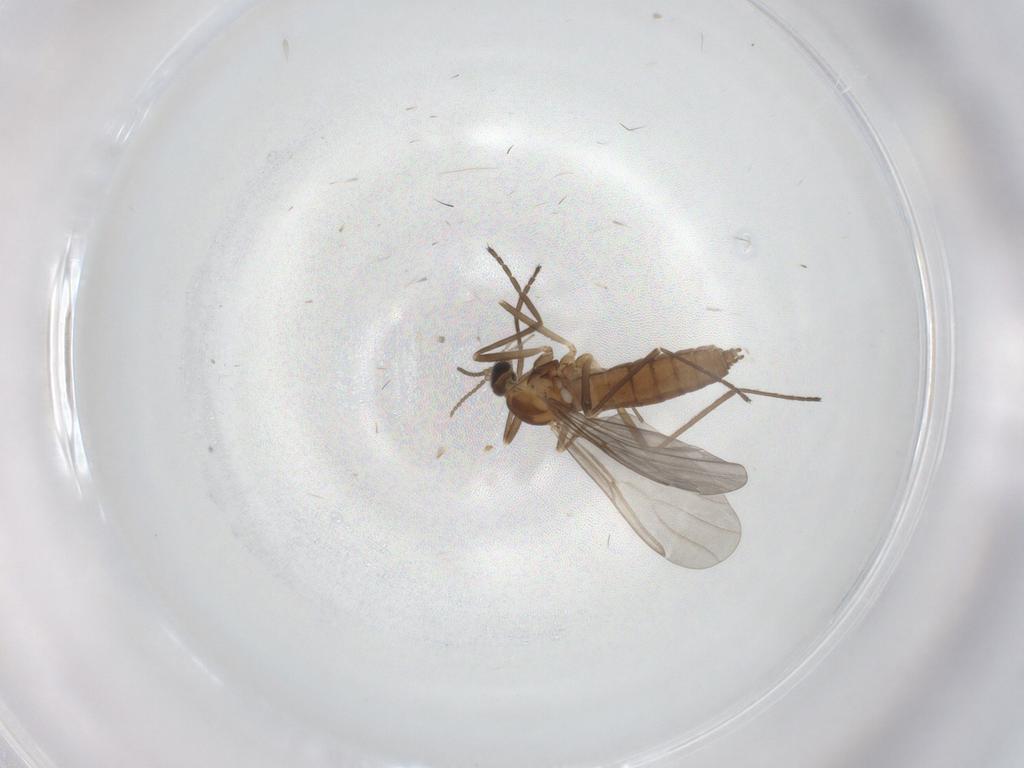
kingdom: Animalia
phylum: Arthropoda
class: Insecta
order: Diptera
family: Cecidomyiidae
